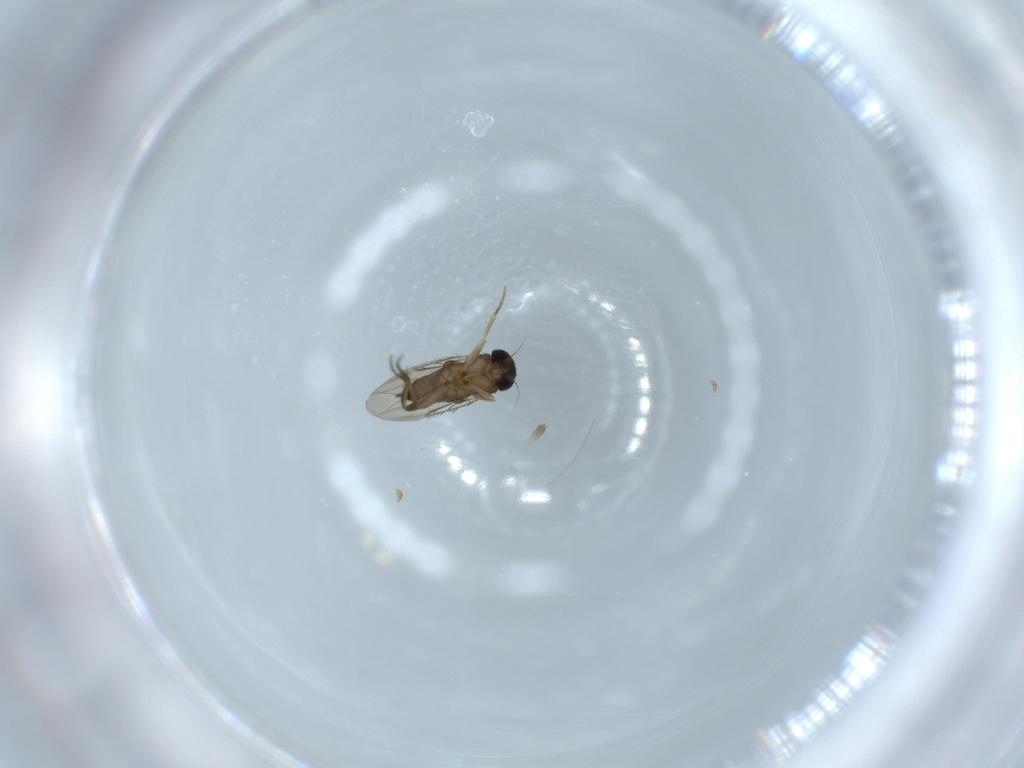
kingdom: Animalia
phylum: Arthropoda
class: Insecta
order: Diptera
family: Phoridae
